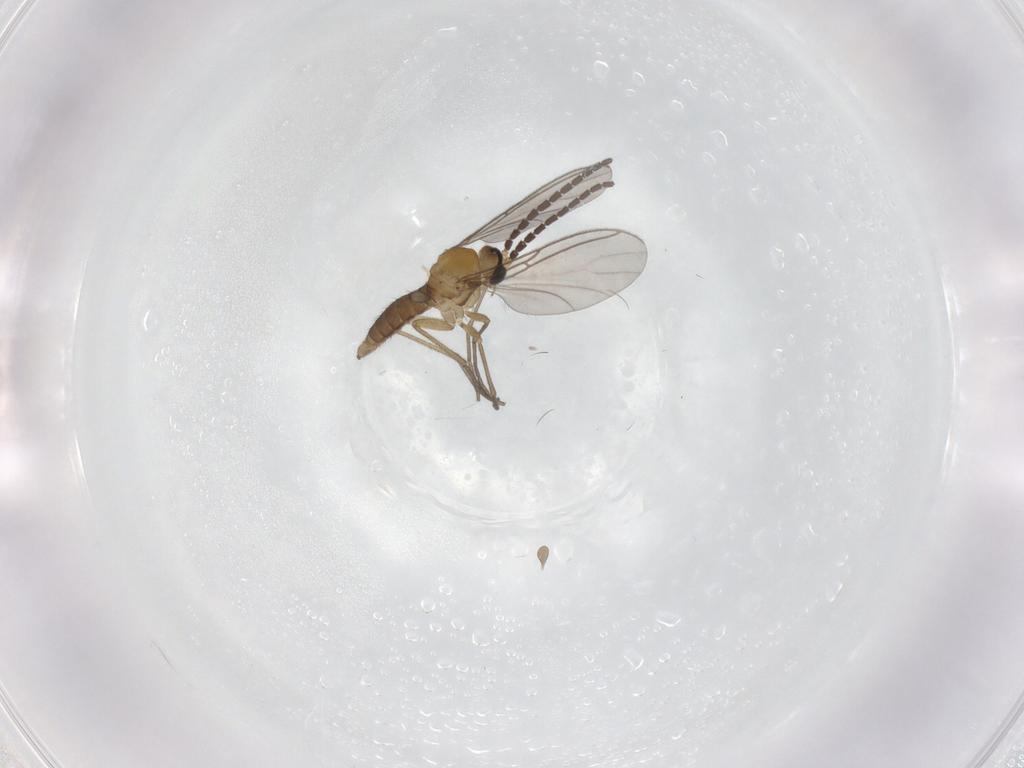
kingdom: Animalia
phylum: Arthropoda
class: Insecta
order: Diptera
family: Sciaridae
